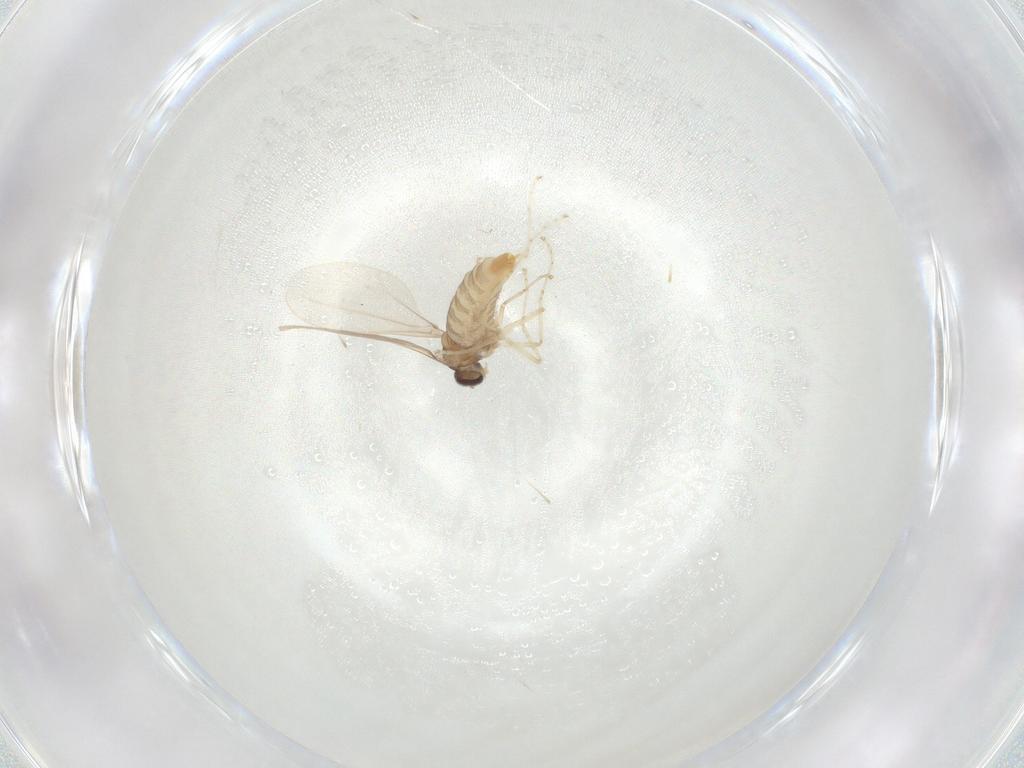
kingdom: Animalia
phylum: Arthropoda
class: Insecta
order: Diptera
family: Cecidomyiidae
